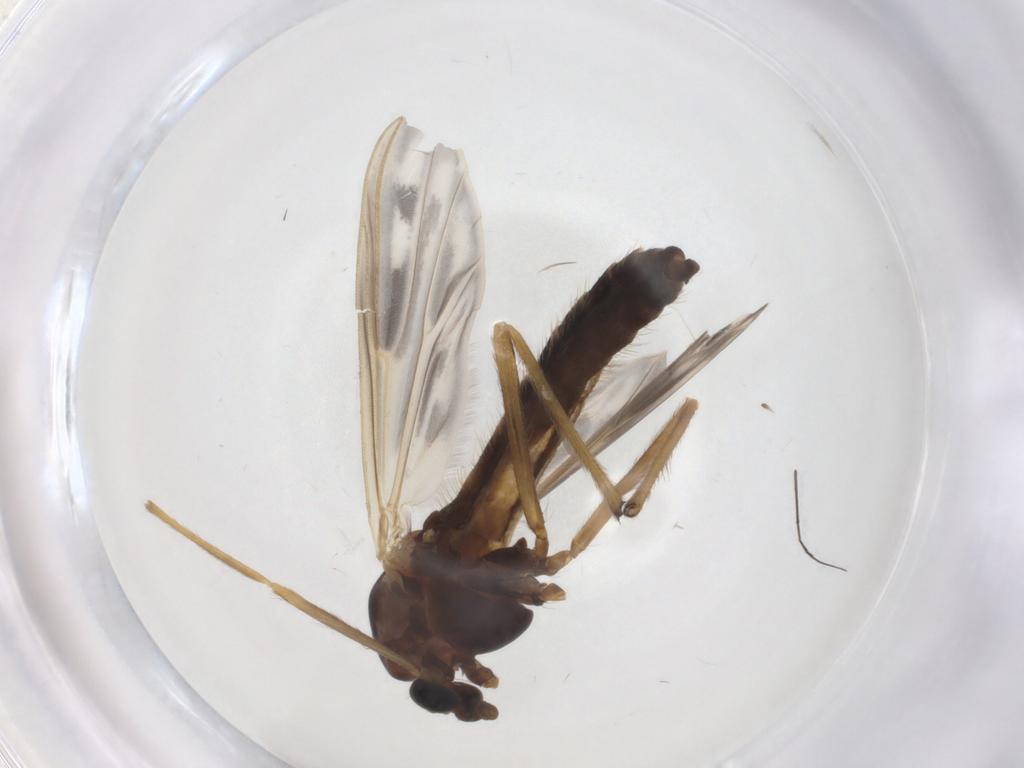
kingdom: Animalia
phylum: Arthropoda
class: Insecta
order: Diptera
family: Chironomidae
